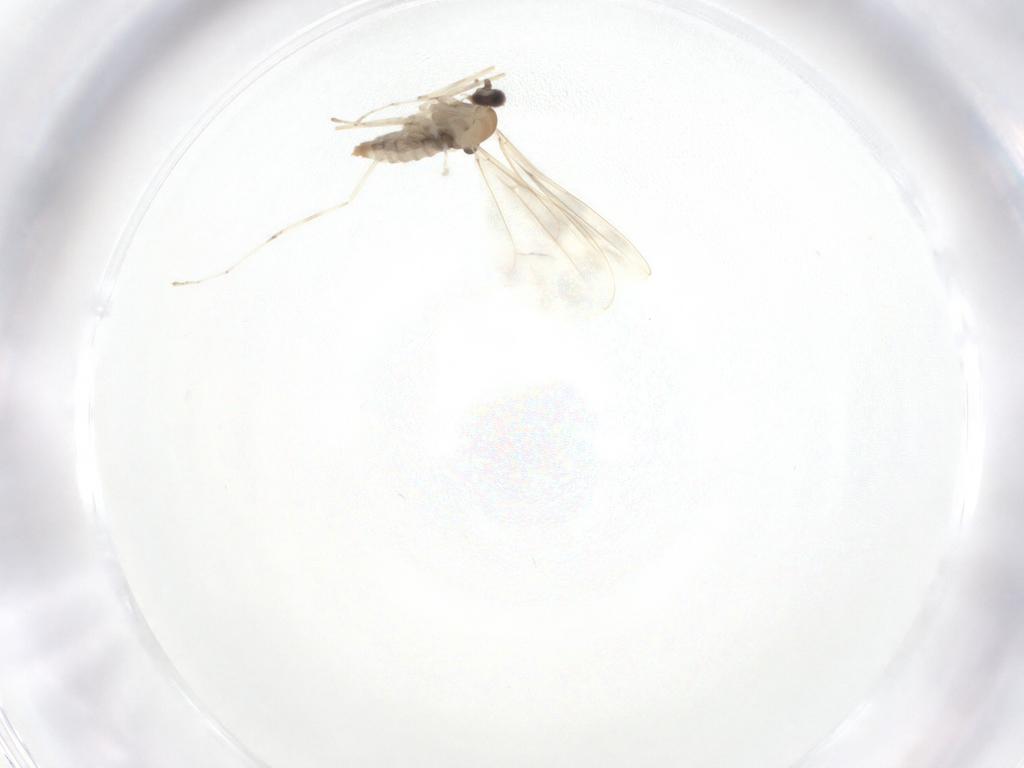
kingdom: Animalia
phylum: Arthropoda
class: Insecta
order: Diptera
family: Cecidomyiidae
